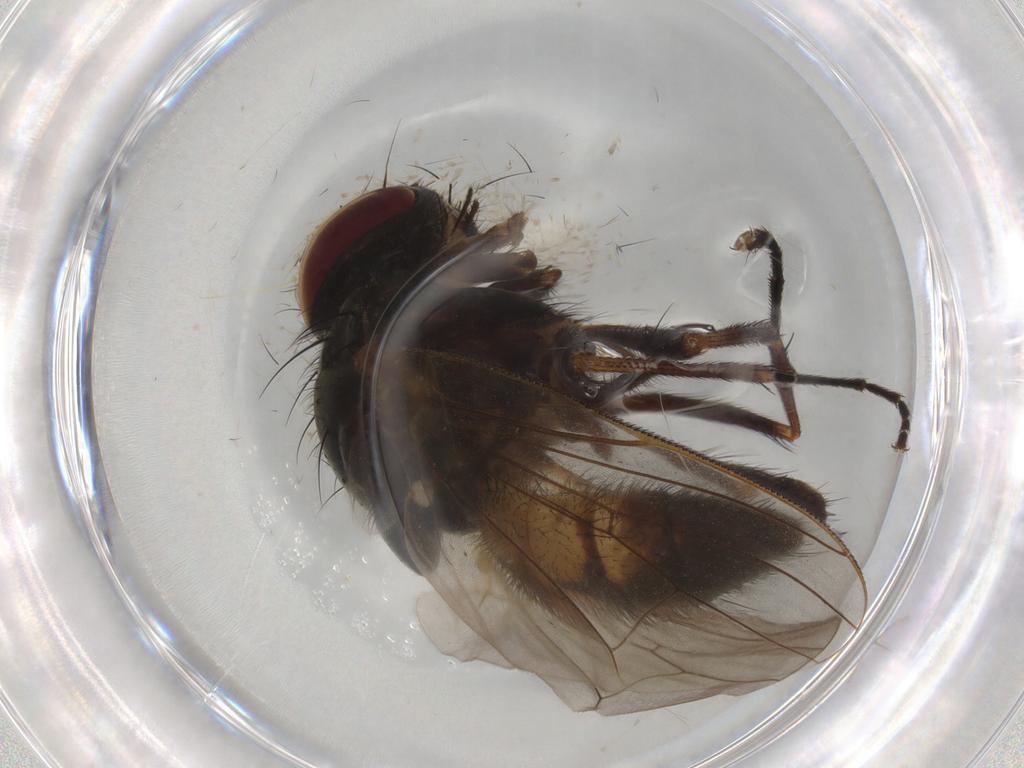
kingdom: Animalia
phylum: Arthropoda
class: Insecta
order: Diptera
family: Fannia
